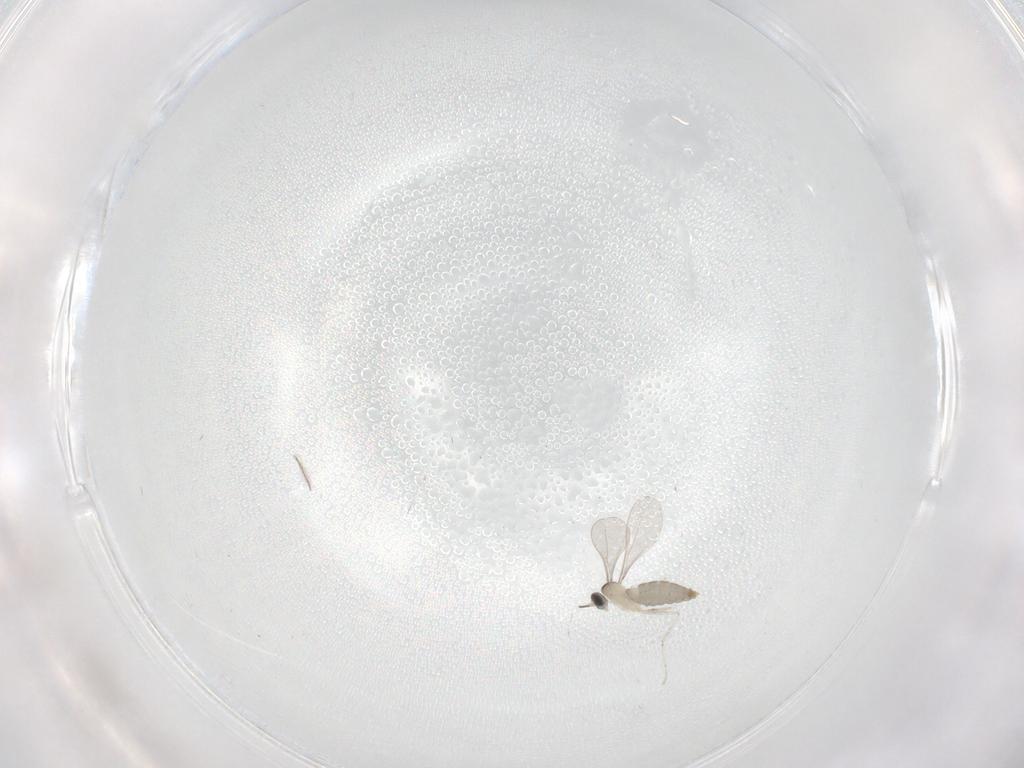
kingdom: Animalia
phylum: Arthropoda
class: Insecta
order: Diptera
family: Cecidomyiidae
